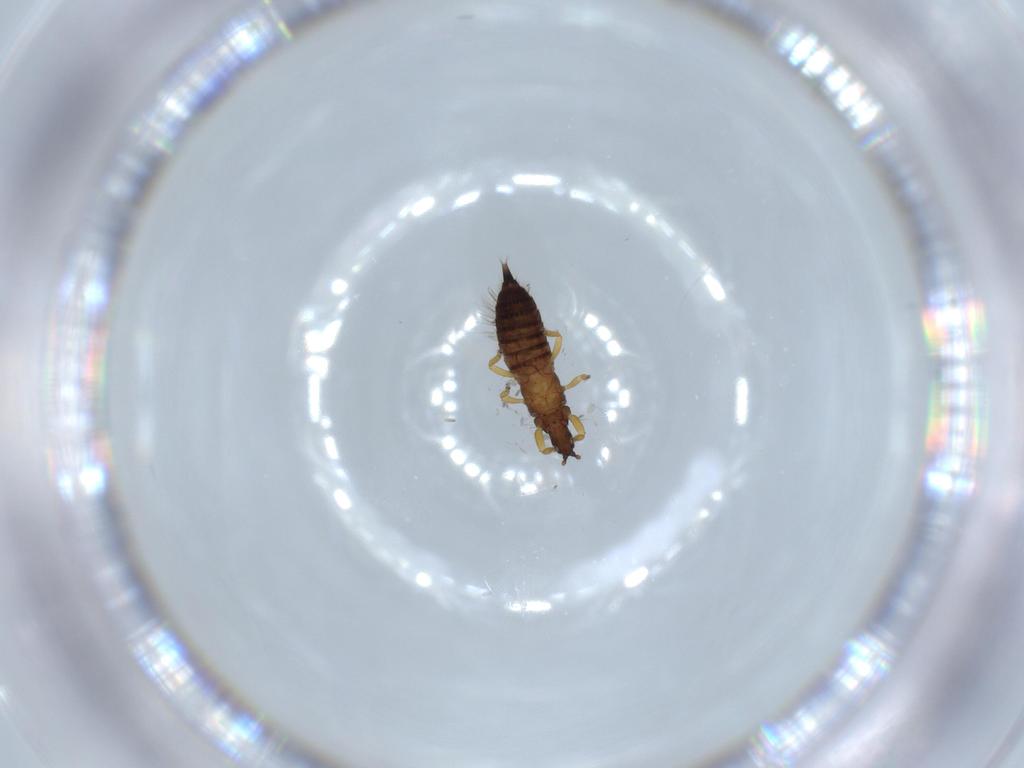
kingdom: Animalia
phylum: Arthropoda
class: Insecta
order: Thysanoptera
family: Phlaeothripidae
